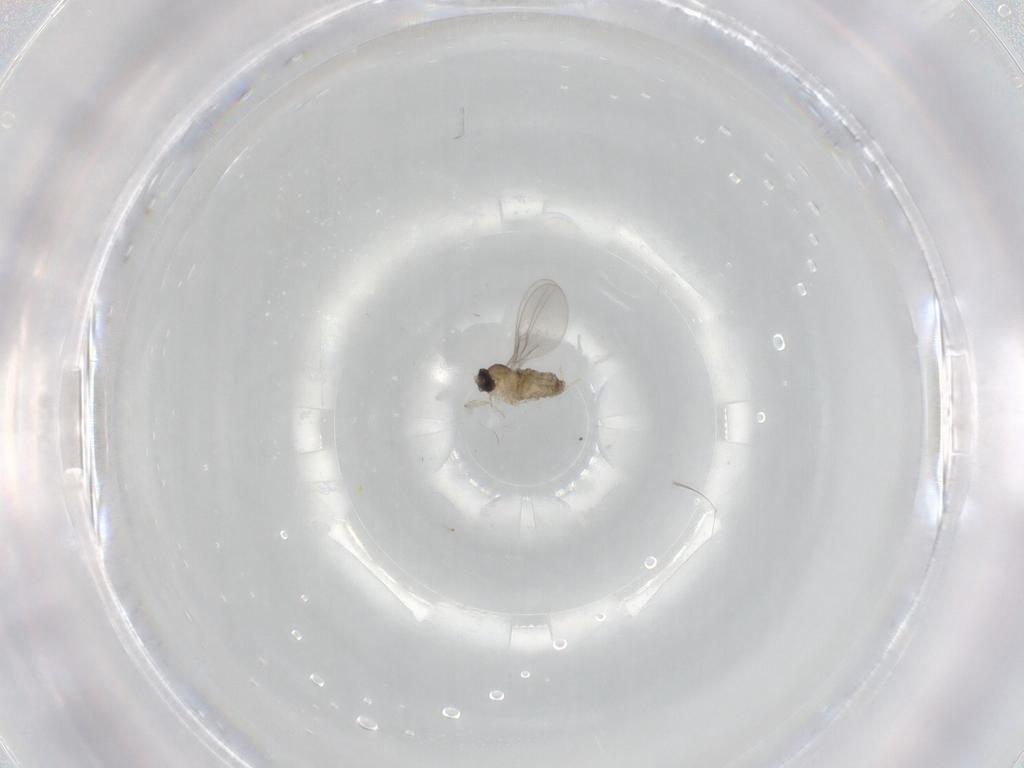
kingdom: Animalia
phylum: Arthropoda
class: Insecta
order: Diptera
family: Cecidomyiidae
